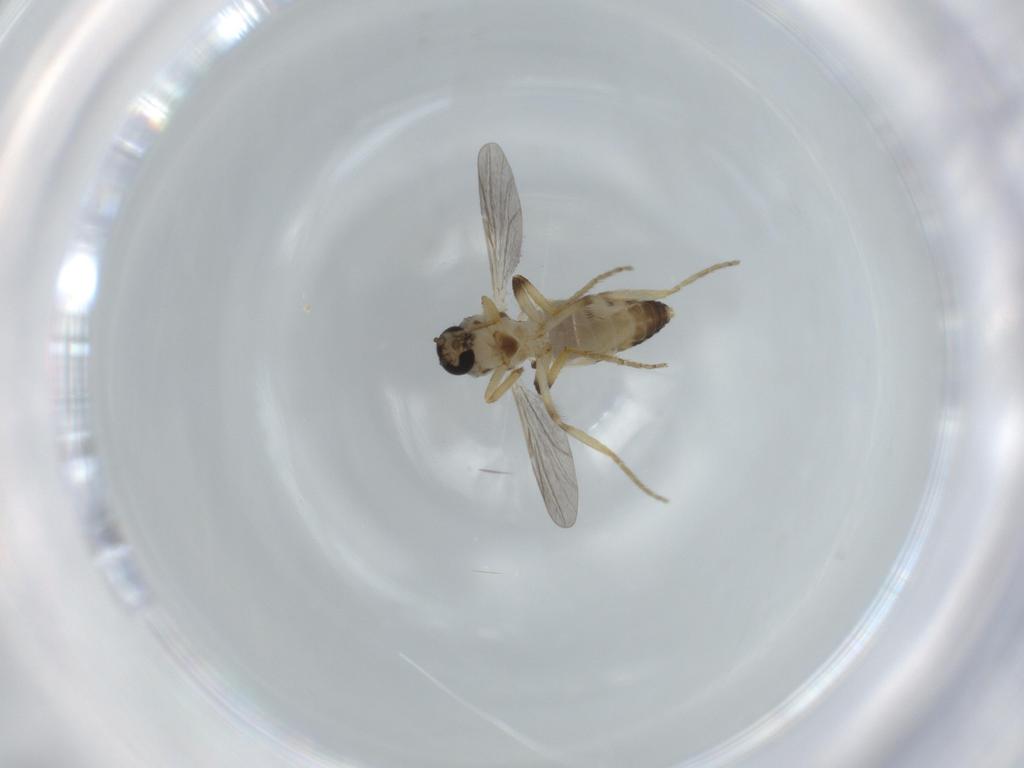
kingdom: Animalia
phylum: Arthropoda
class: Insecta
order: Diptera
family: Ceratopogonidae
